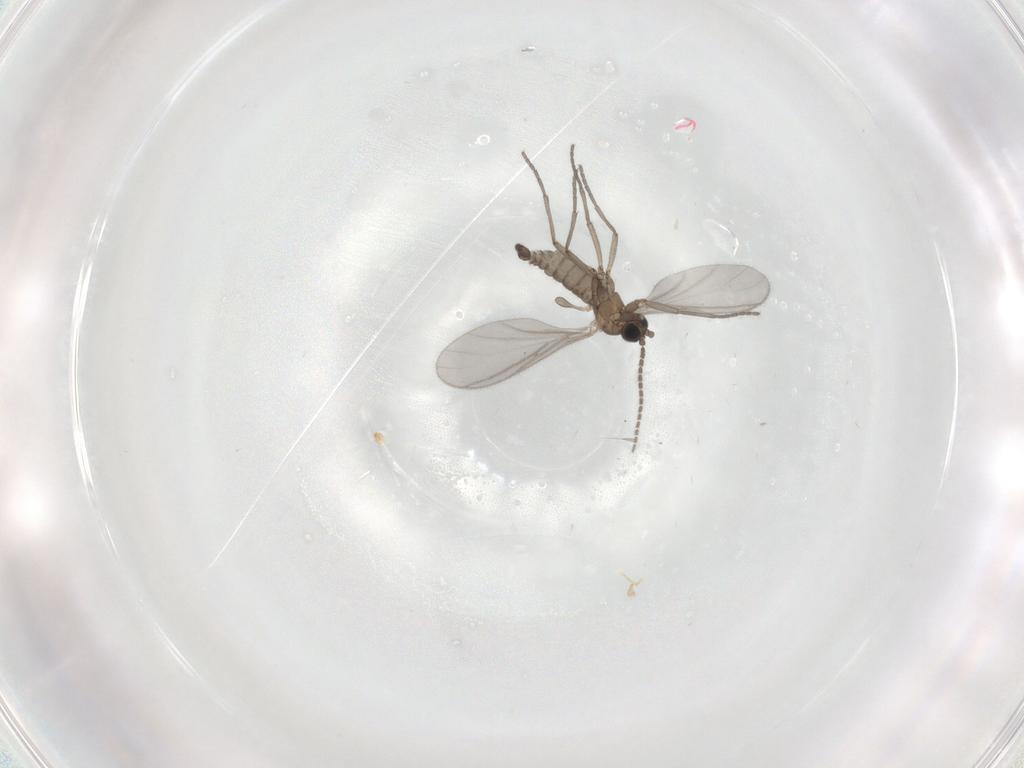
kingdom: Animalia
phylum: Arthropoda
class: Insecta
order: Diptera
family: Sciaridae
